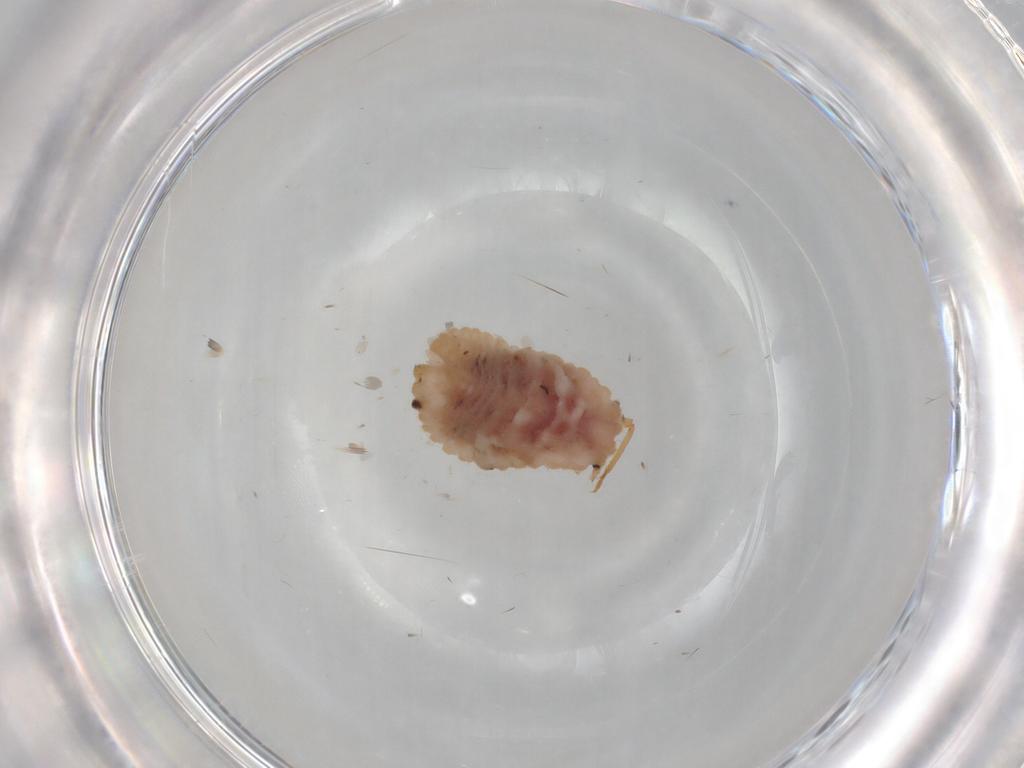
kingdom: Animalia
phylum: Arthropoda
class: Insecta
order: Hemiptera
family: Coccoidea_incertae_sedis
